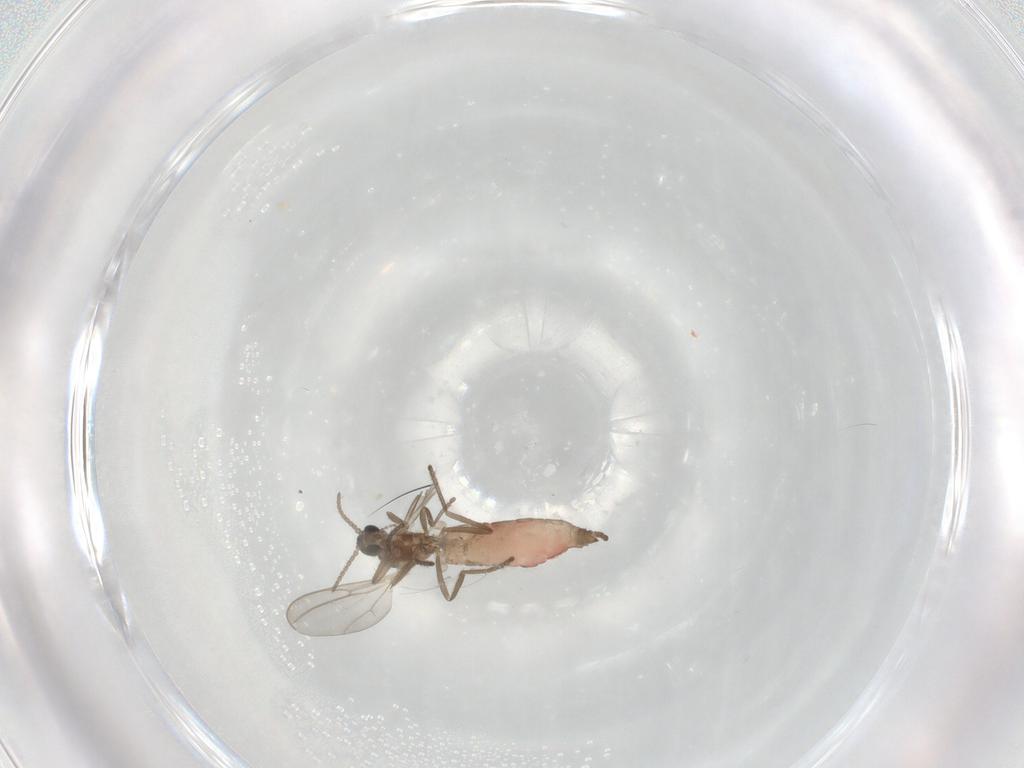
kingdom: Animalia
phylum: Arthropoda
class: Insecta
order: Diptera
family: Cecidomyiidae
